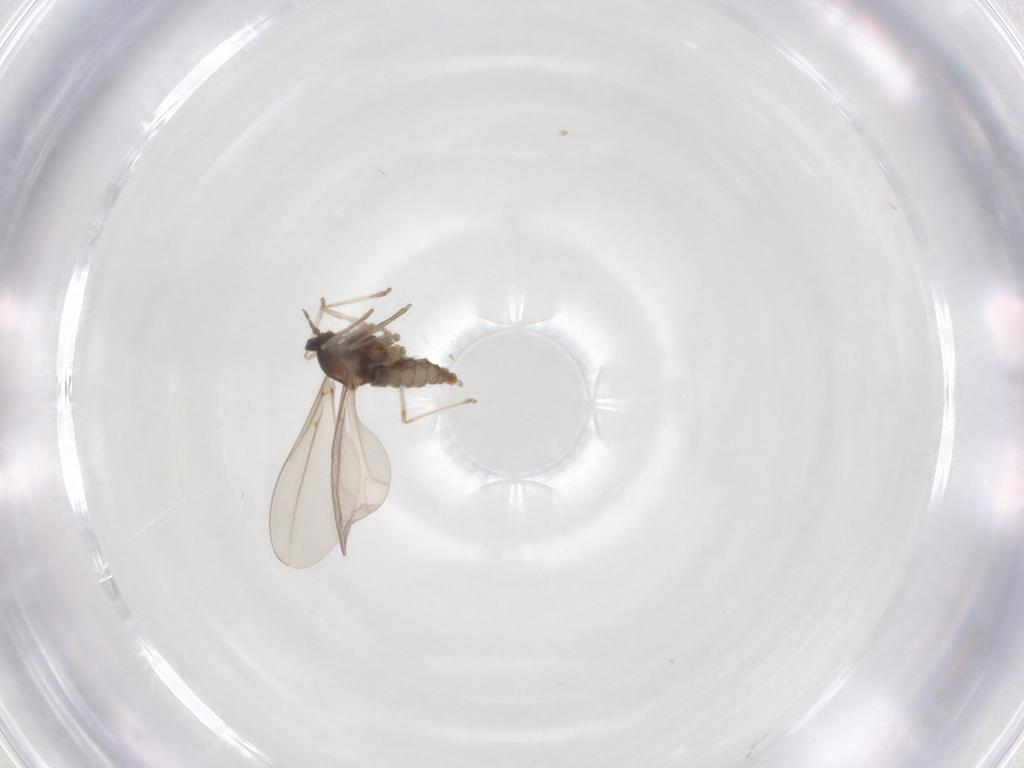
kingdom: Animalia
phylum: Arthropoda
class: Insecta
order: Diptera
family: Cecidomyiidae
